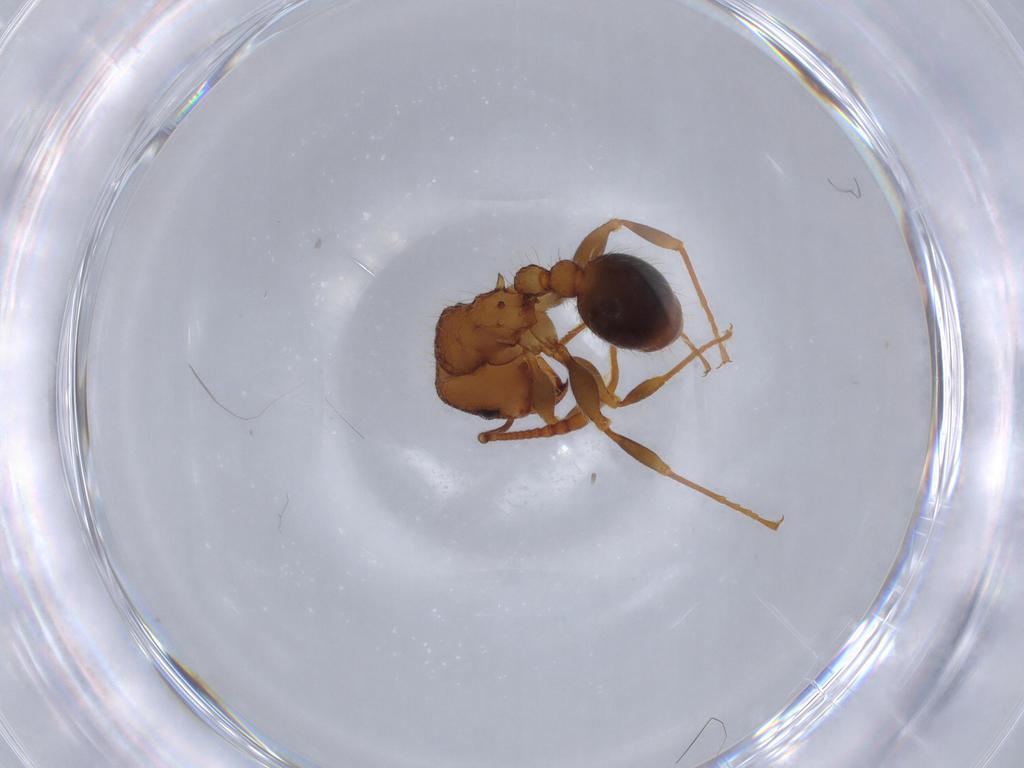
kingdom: Animalia
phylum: Arthropoda
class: Insecta
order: Hymenoptera
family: Formicidae
